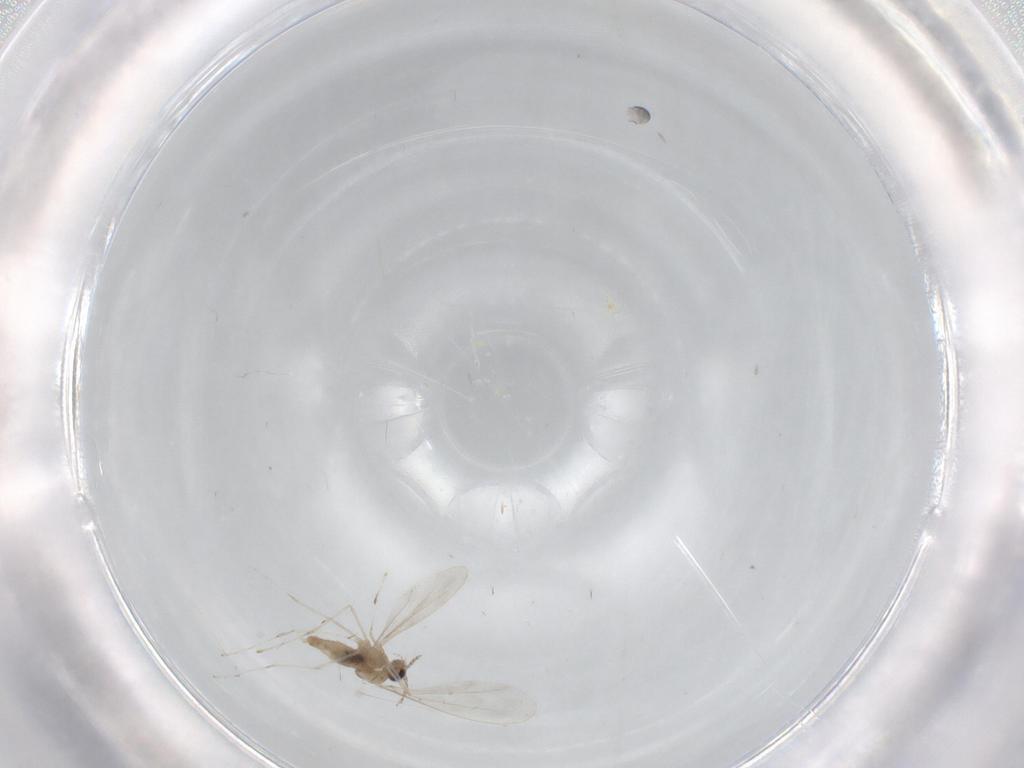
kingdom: Animalia
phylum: Arthropoda
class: Insecta
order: Diptera
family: Cecidomyiidae
